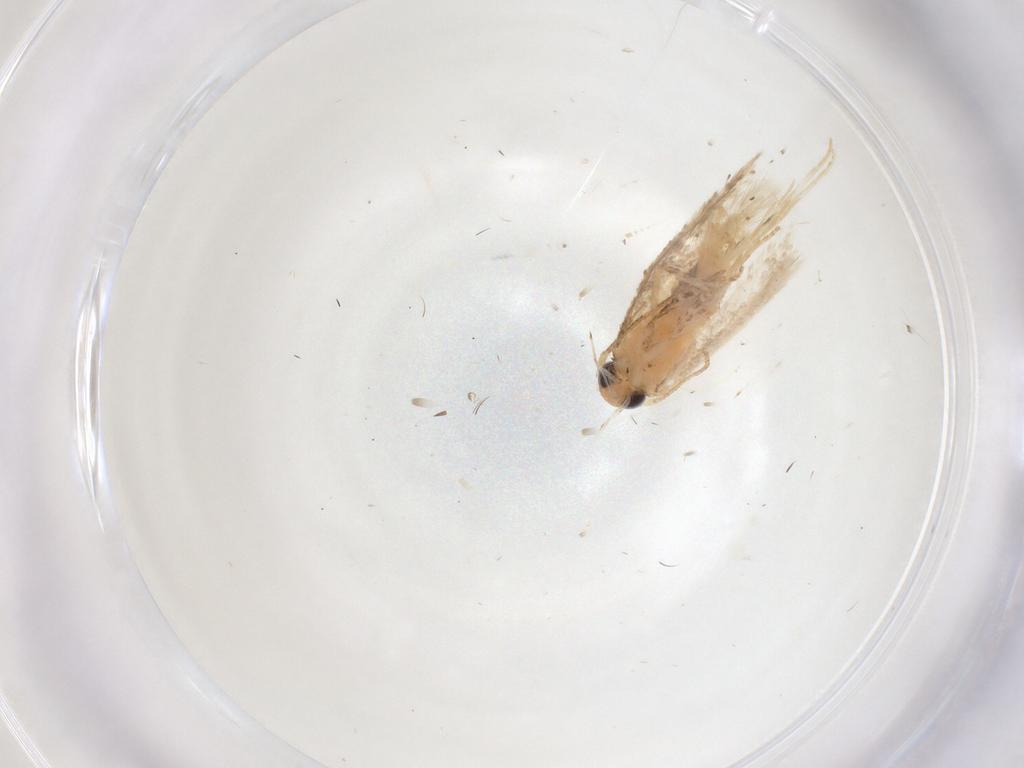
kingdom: Animalia
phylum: Arthropoda
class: Insecta
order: Lepidoptera
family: Gelechiidae
